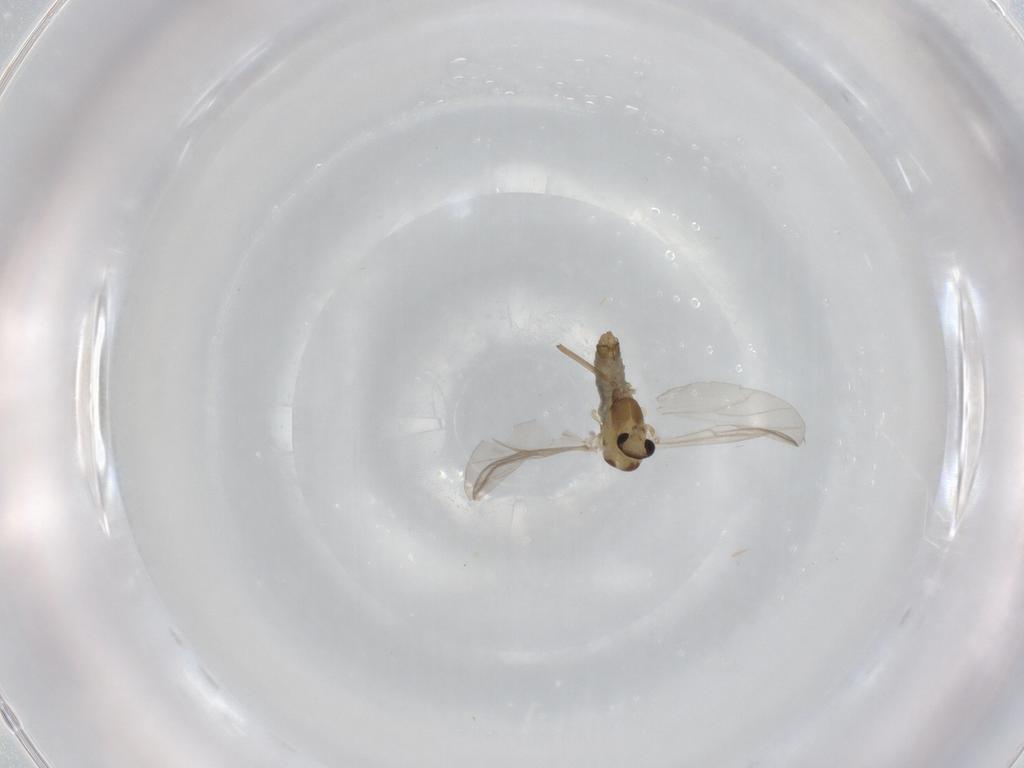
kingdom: Animalia
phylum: Arthropoda
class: Insecta
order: Diptera
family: Chironomidae
